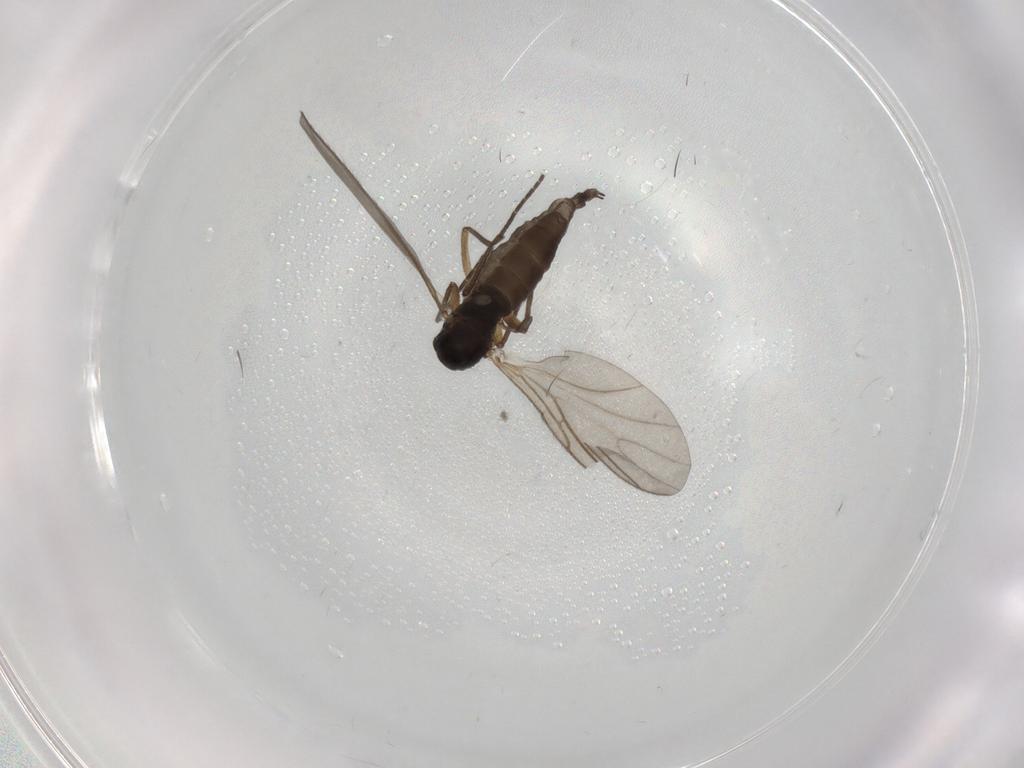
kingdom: Animalia
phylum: Arthropoda
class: Insecta
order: Diptera
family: Sciaridae
